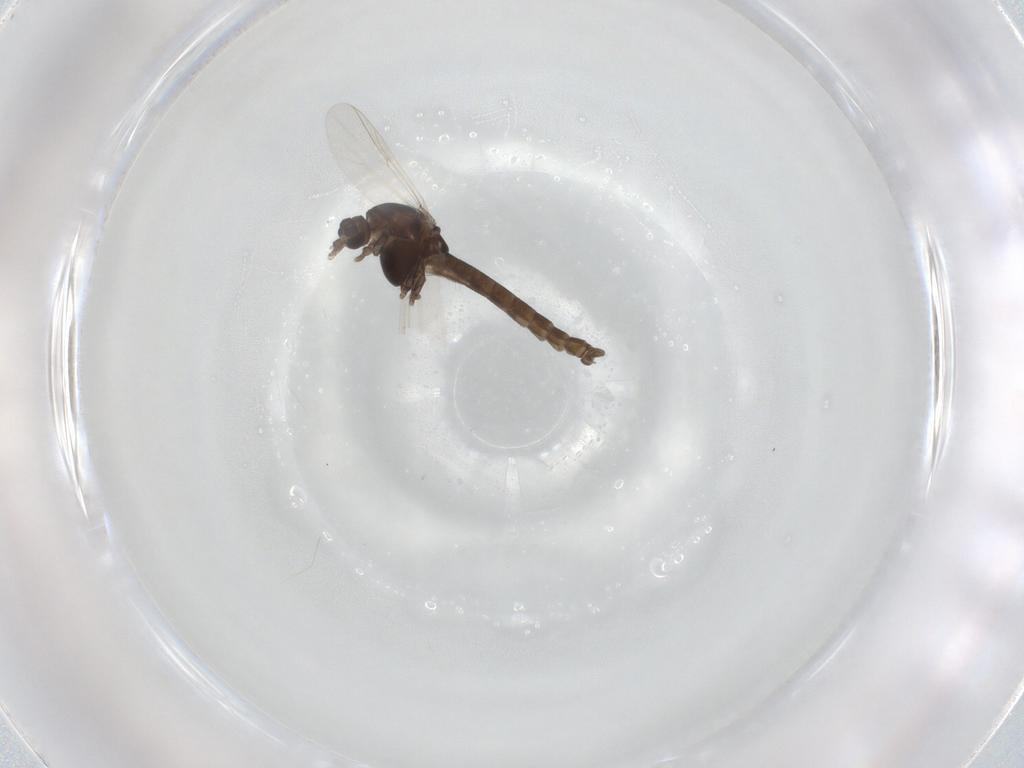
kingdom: Animalia
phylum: Arthropoda
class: Insecta
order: Diptera
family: Chironomidae
